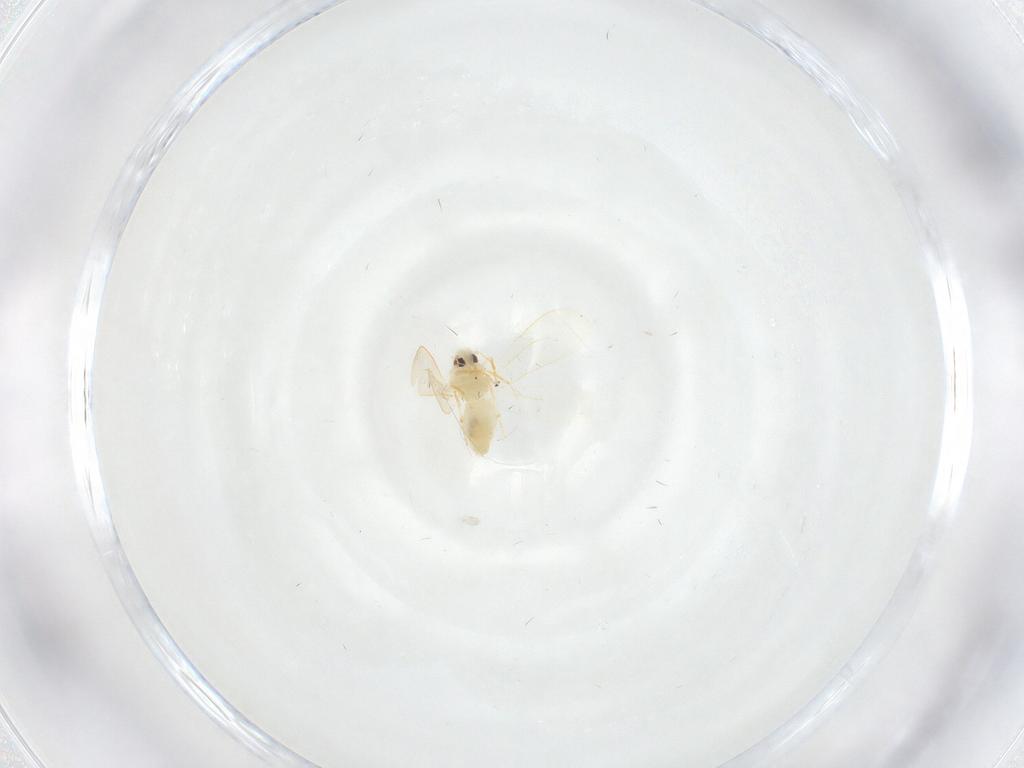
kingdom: Animalia
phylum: Arthropoda
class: Insecta
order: Hemiptera
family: Aleyrodidae
